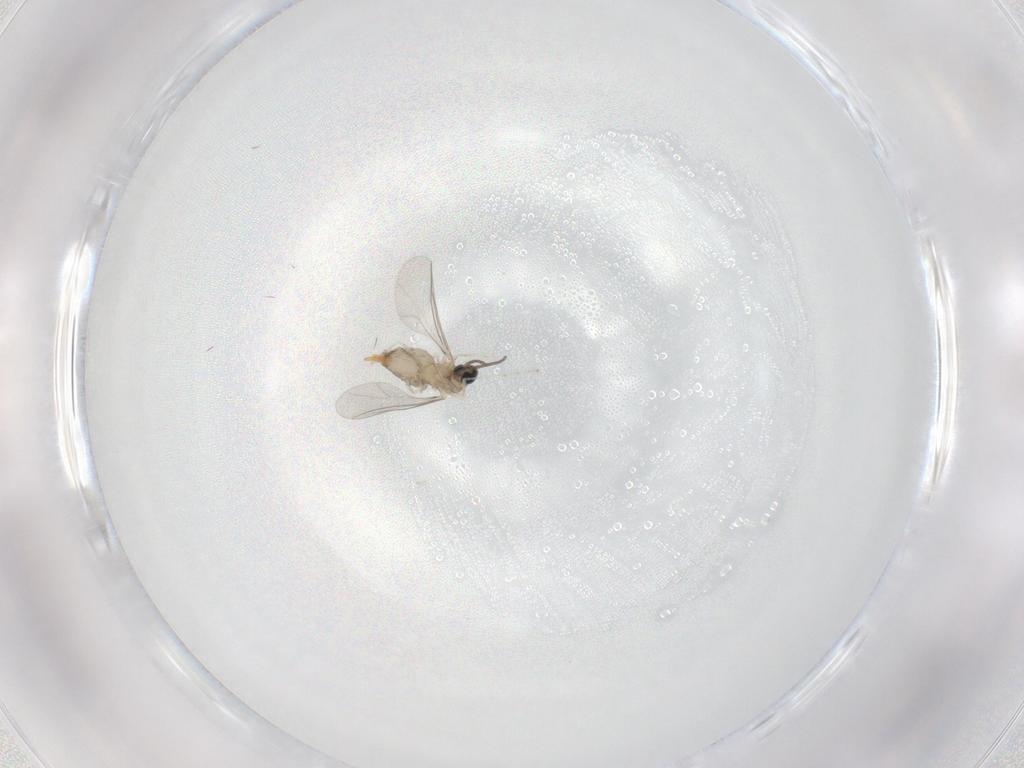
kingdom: Animalia
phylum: Arthropoda
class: Insecta
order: Diptera
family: Cecidomyiidae
